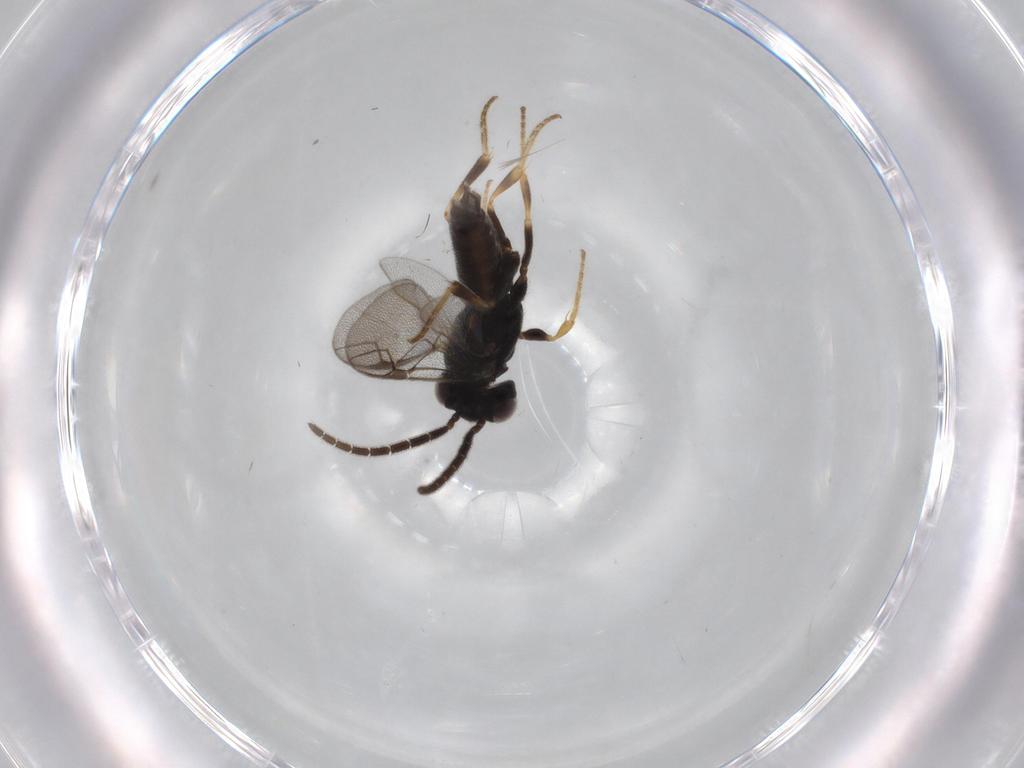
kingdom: Animalia
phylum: Arthropoda
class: Insecta
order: Hymenoptera
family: Dryinidae
